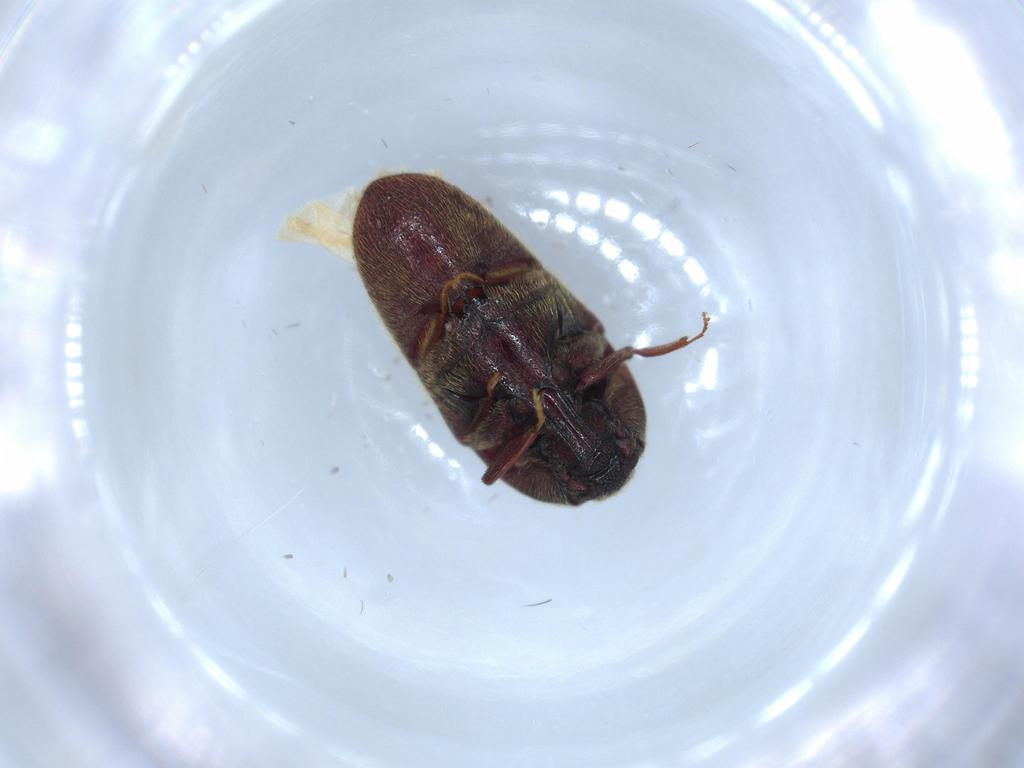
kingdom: Animalia
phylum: Arthropoda
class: Insecta
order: Coleoptera
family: Throscidae
